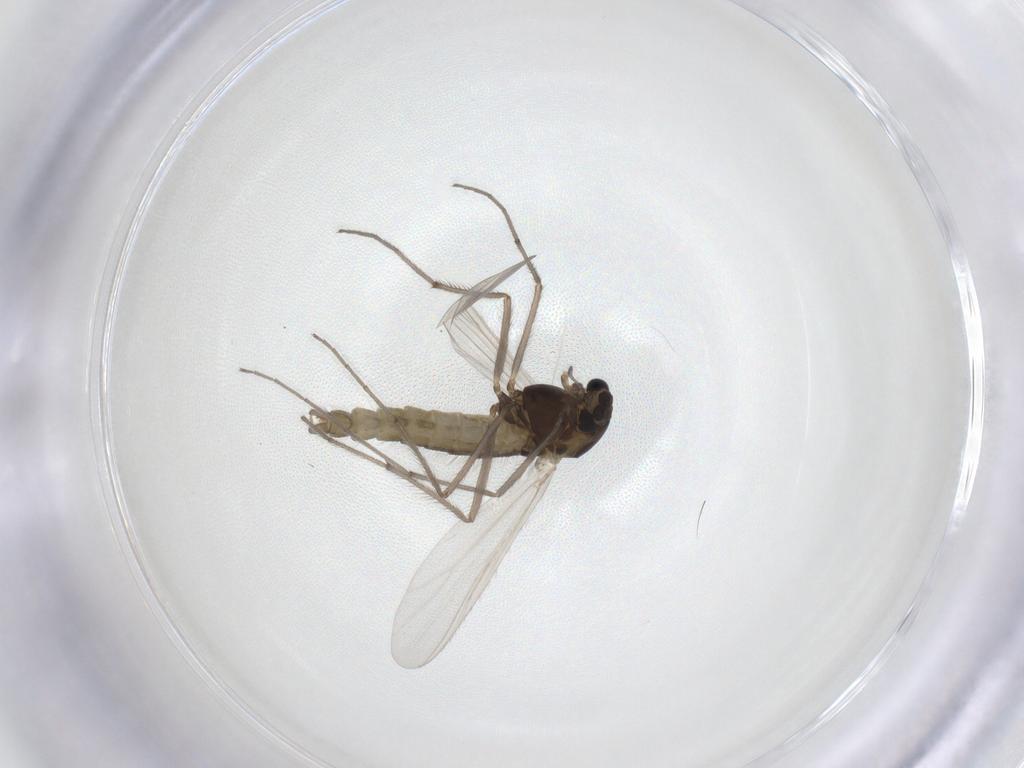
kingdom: Animalia
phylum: Arthropoda
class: Insecta
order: Diptera
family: Chironomidae
